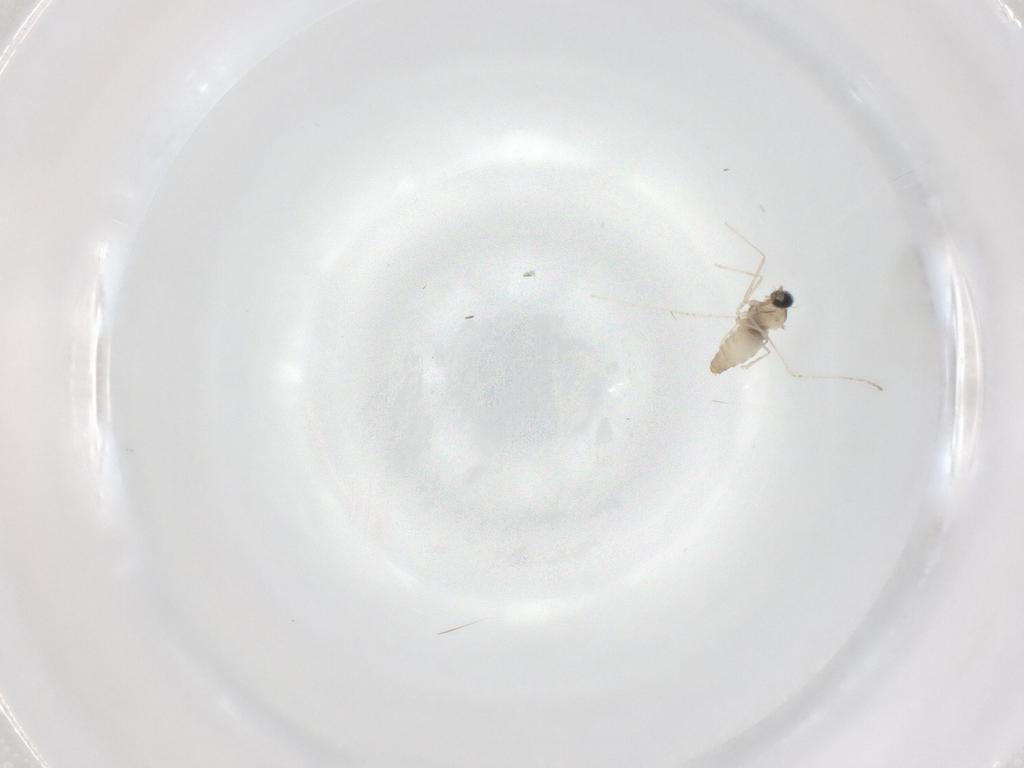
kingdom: Animalia
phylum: Arthropoda
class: Insecta
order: Diptera
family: Cecidomyiidae
